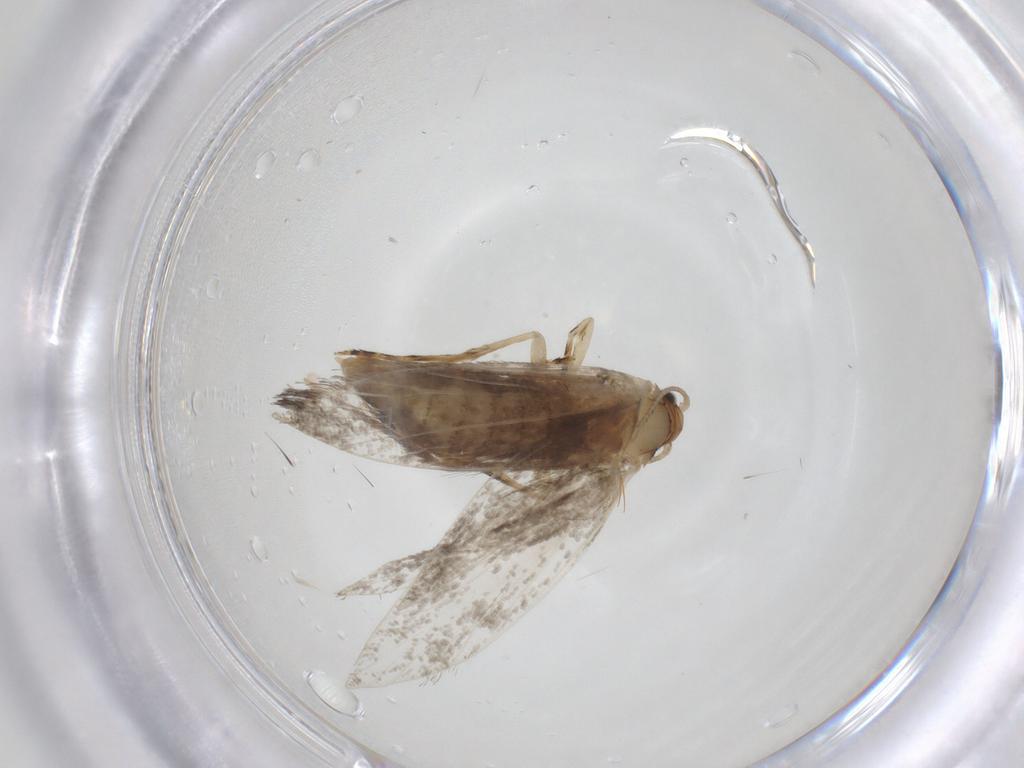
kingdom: Animalia
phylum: Arthropoda
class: Insecta
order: Lepidoptera
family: Tineidae
